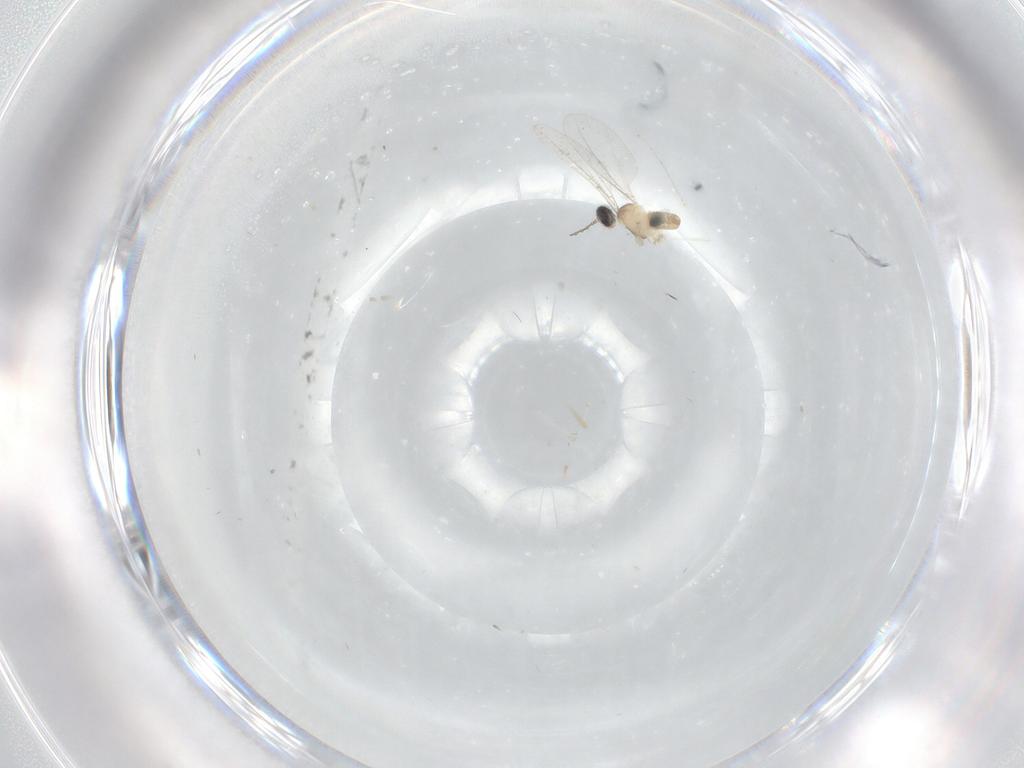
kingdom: Animalia
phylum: Arthropoda
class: Insecta
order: Diptera
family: Cecidomyiidae
